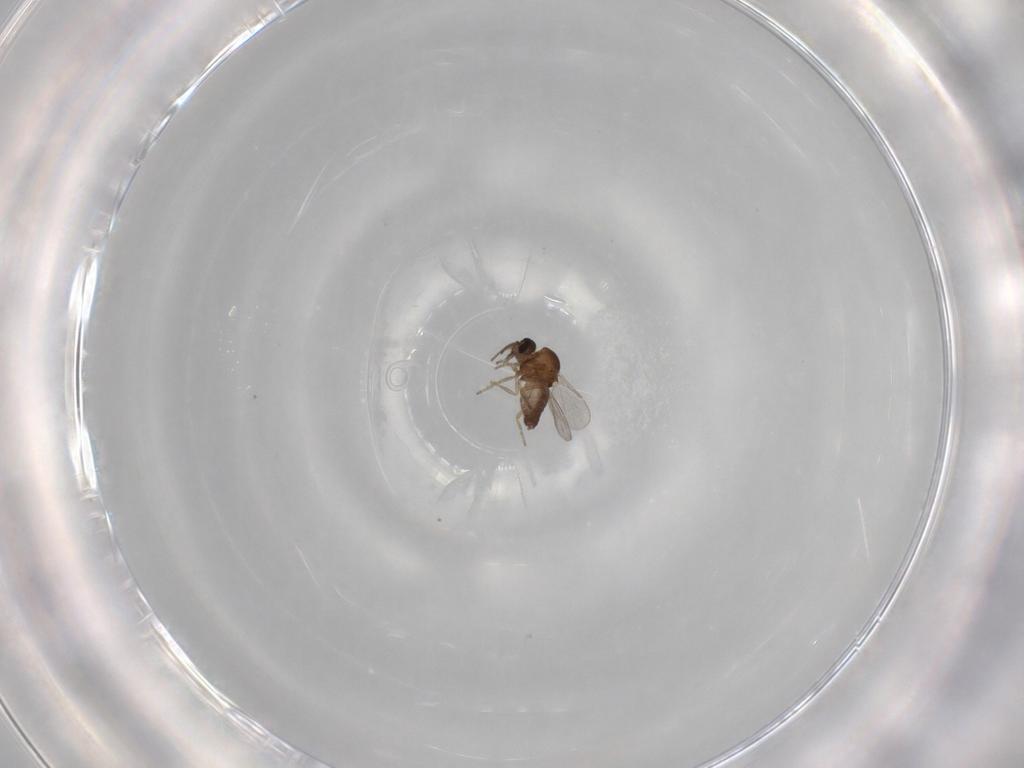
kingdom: Animalia
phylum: Arthropoda
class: Insecta
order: Diptera
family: Ceratopogonidae
